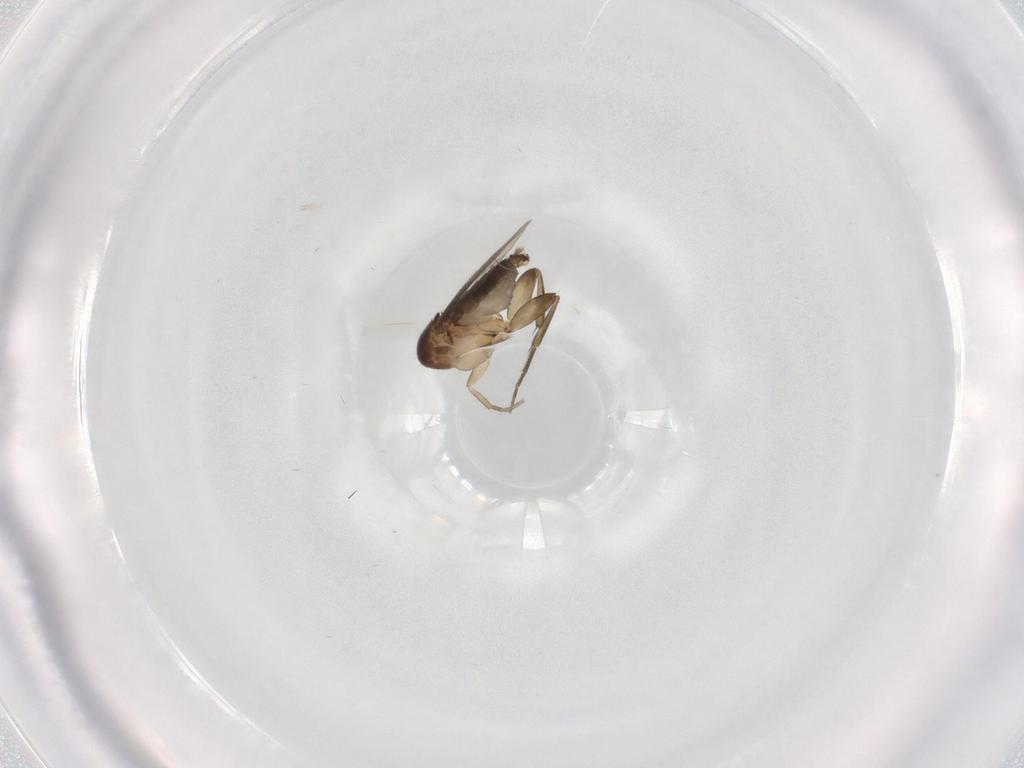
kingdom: Animalia
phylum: Arthropoda
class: Insecta
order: Diptera
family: Phoridae
